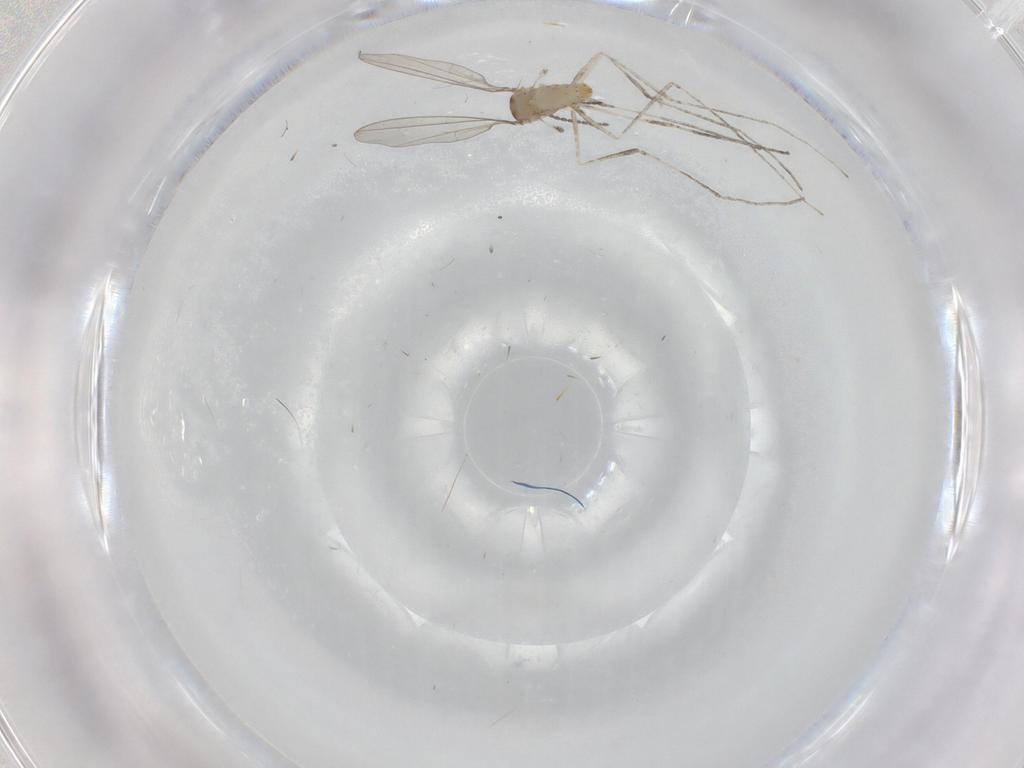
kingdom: Animalia
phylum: Arthropoda
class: Insecta
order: Diptera
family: Cecidomyiidae
